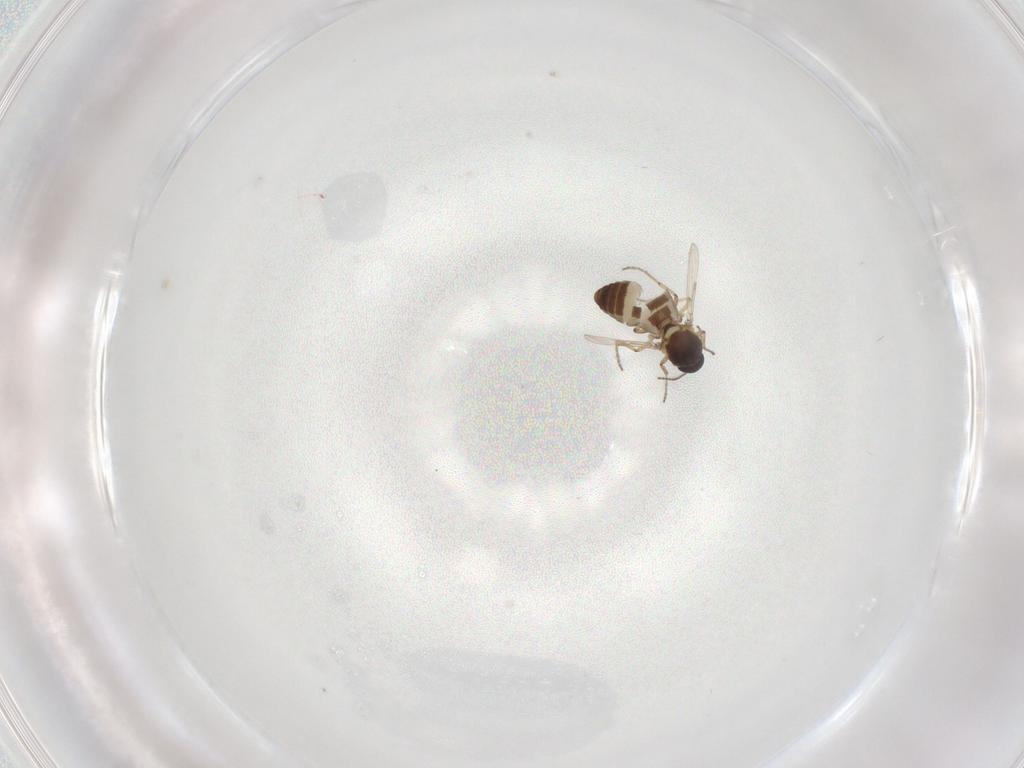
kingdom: Animalia
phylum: Arthropoda
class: Insecta
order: Diptera
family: Ceratopogonidae
